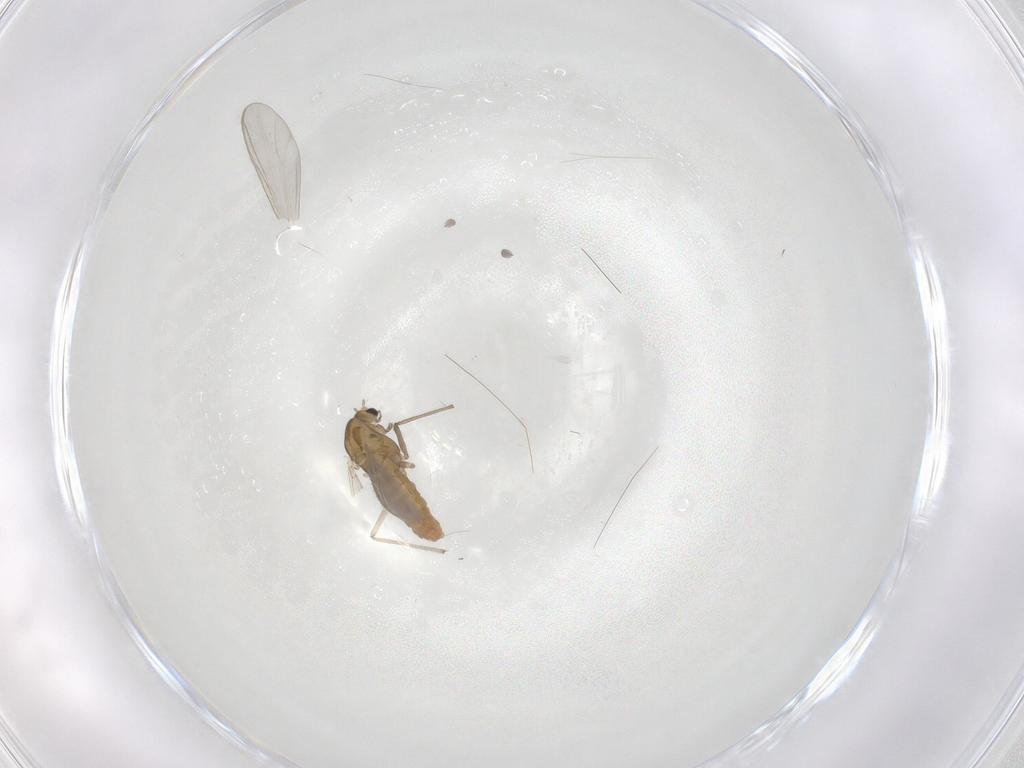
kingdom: Animalia
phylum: Arthropoda
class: Insecta
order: Diptera
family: Chironomidae
